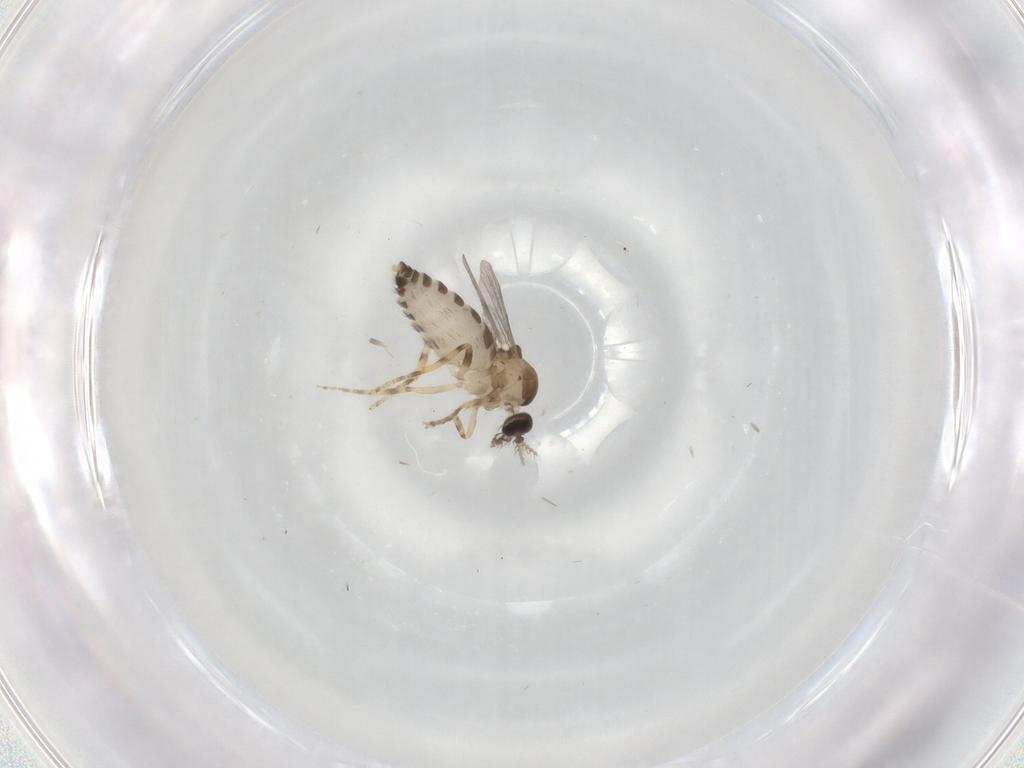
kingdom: Animalia
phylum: Arthropoda
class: Insecta
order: Diptera
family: Ceratopogonidae
